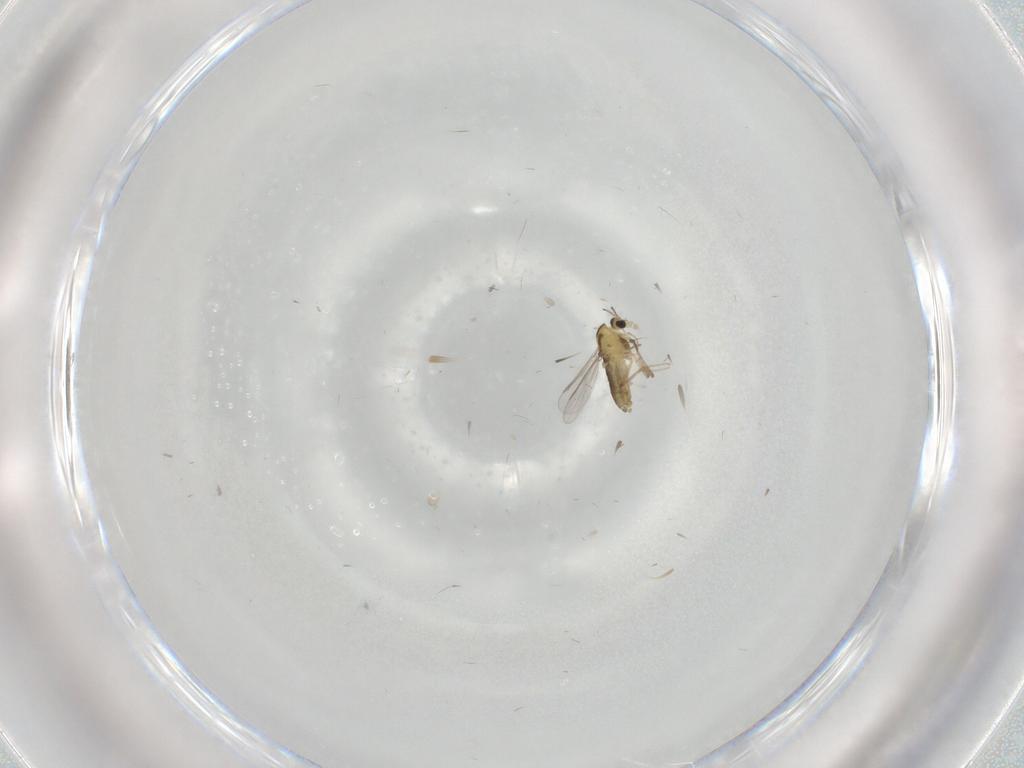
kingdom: Animalia
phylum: Arthropoda
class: Insecta
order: Diptera
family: Chironomidae
